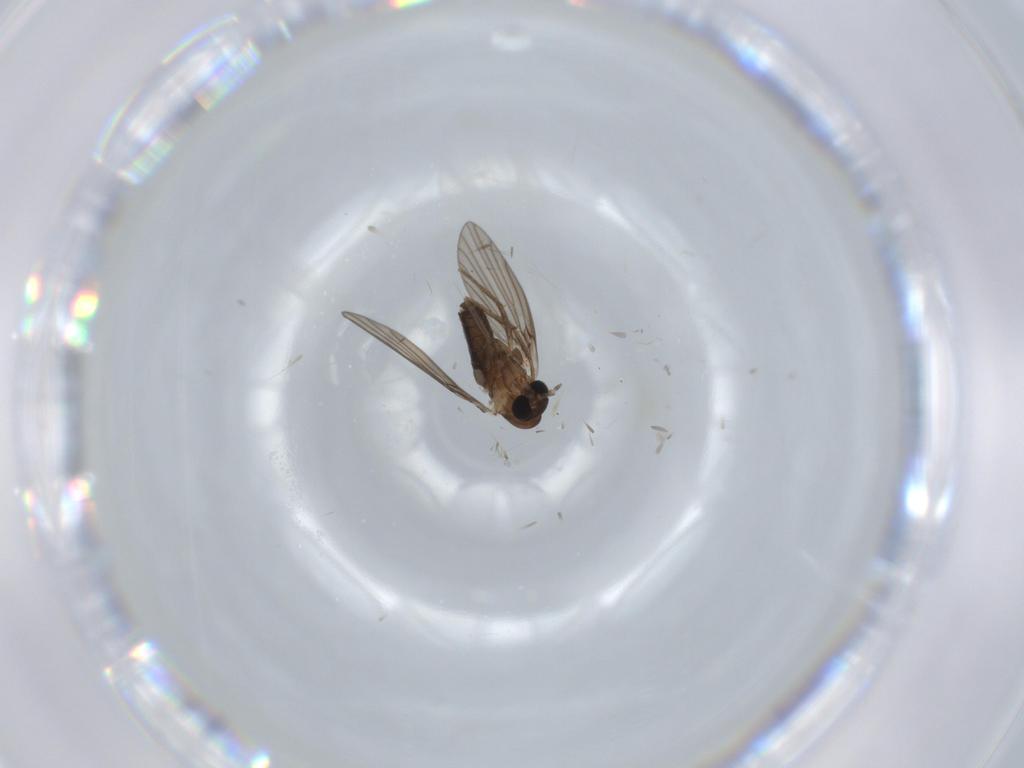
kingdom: Animalia
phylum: Arthropoda
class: Insecta
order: Diptera
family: Psychodidae
